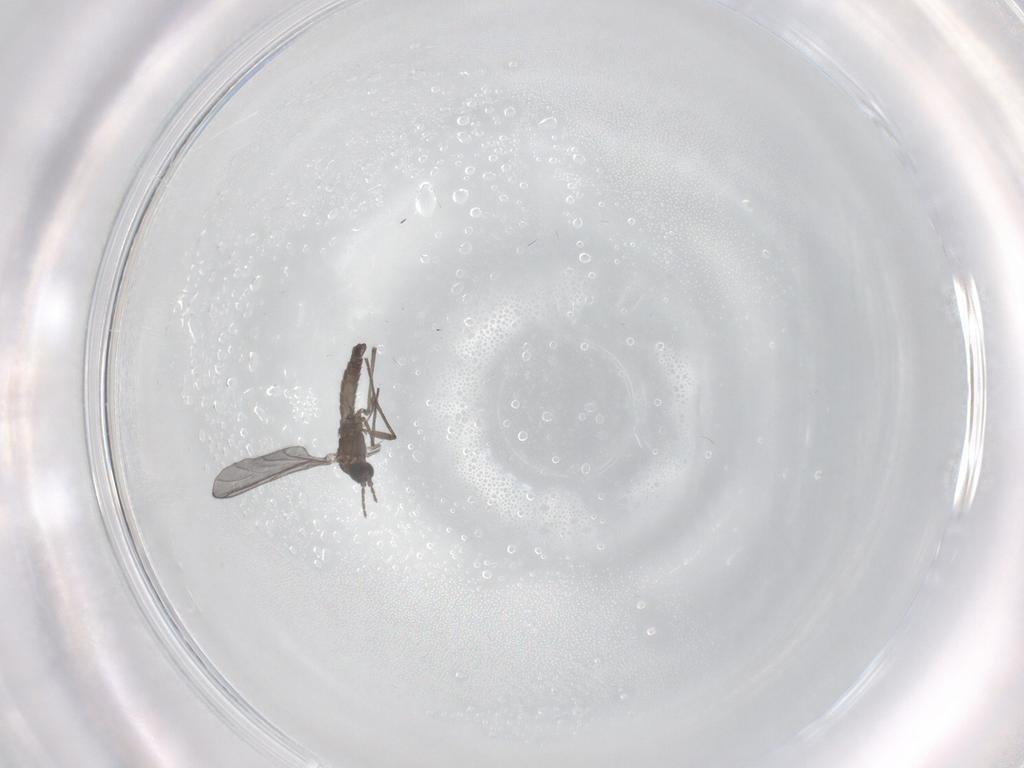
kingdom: Animalia
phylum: Arthropoda
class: Insecta
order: Diptera
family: Sciaridae
